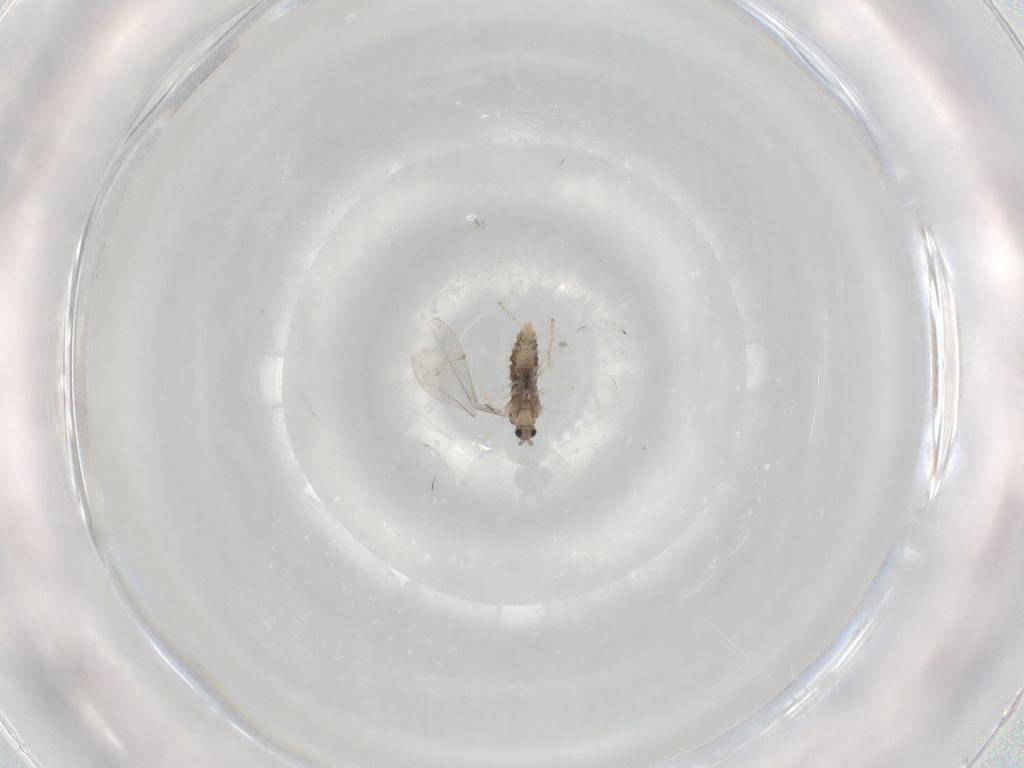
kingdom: Animalia
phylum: Arthropoda
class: Insecta
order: Diptera
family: Cecidomyiidae
